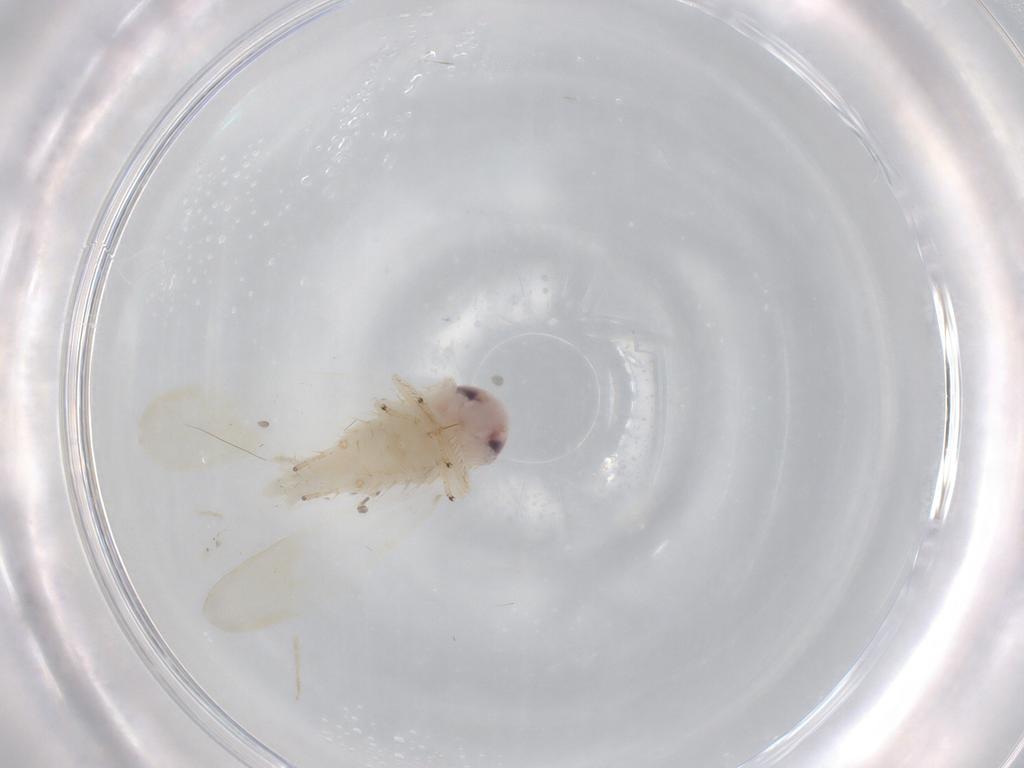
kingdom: Animalia
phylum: Arthropoda
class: Insecta
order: Hemiptera
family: Cicadellidae
